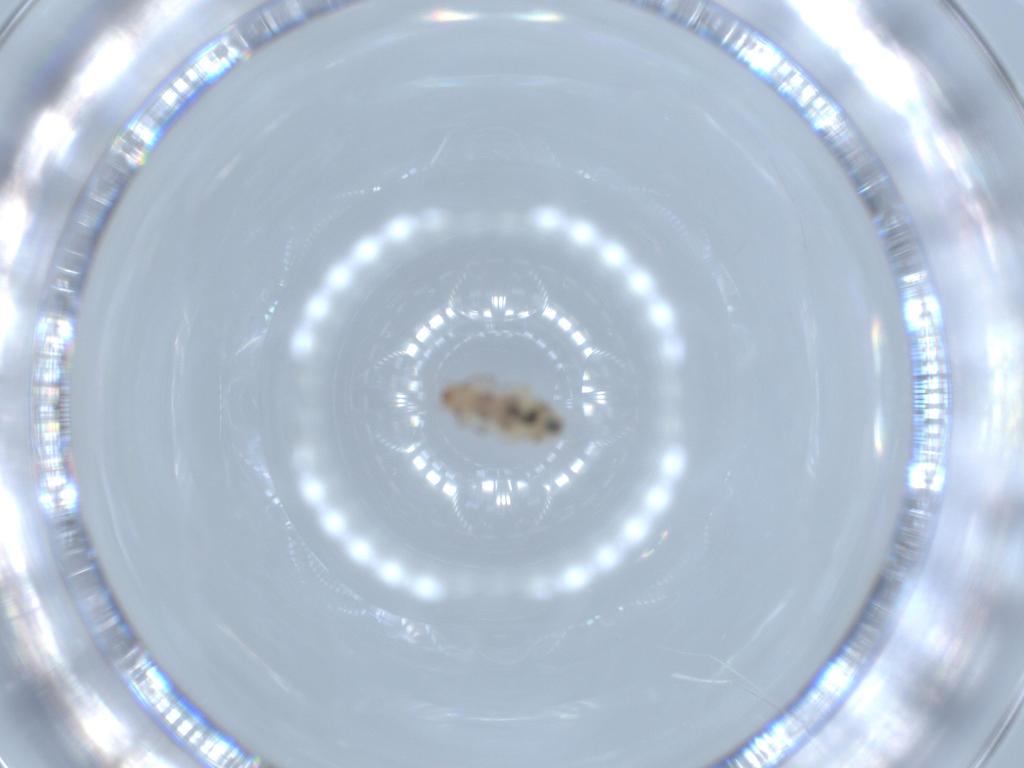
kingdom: Animalia
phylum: Arthropoda
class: Insecta
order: Psocodea
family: Liposcelididae
